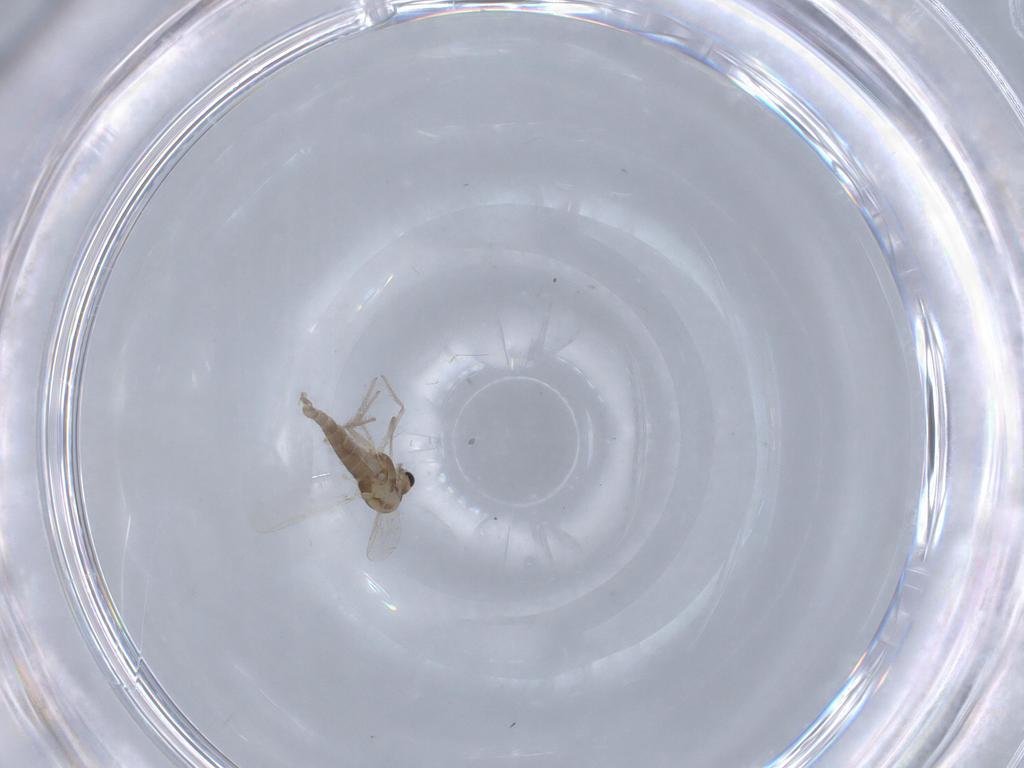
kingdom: Animalia
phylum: Arthropoda
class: Insecta
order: Diptera
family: Chironomidae
